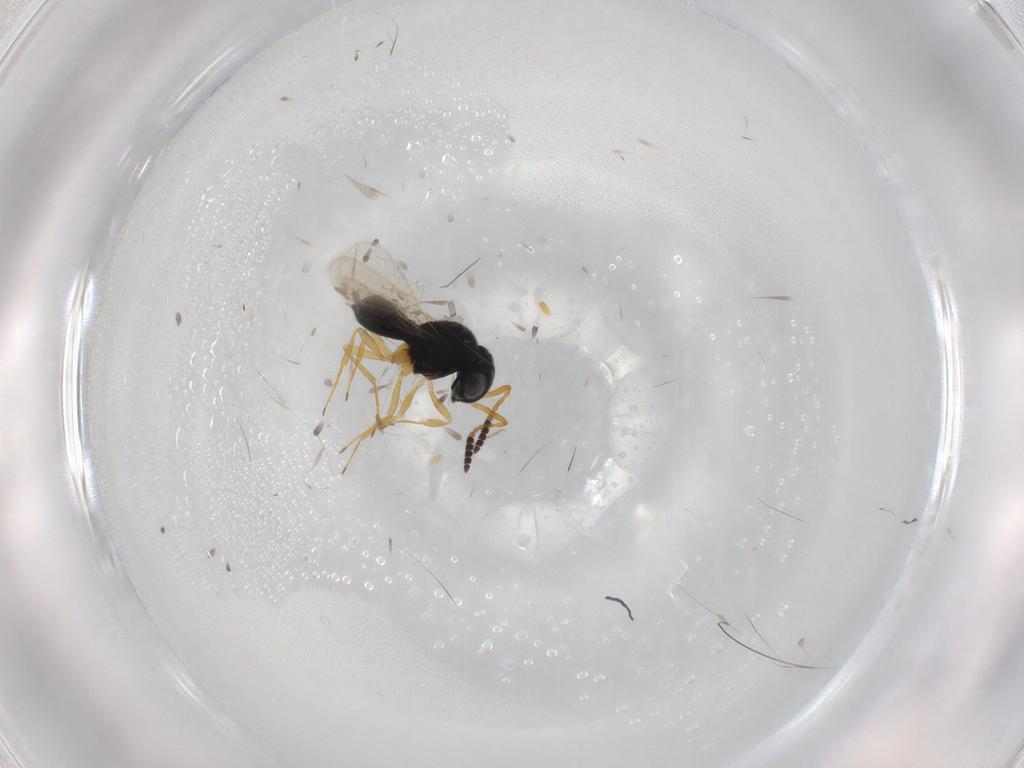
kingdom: Animalia
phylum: Arthropoda
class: Insecta
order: Hymenoptera
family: Scelionidae
